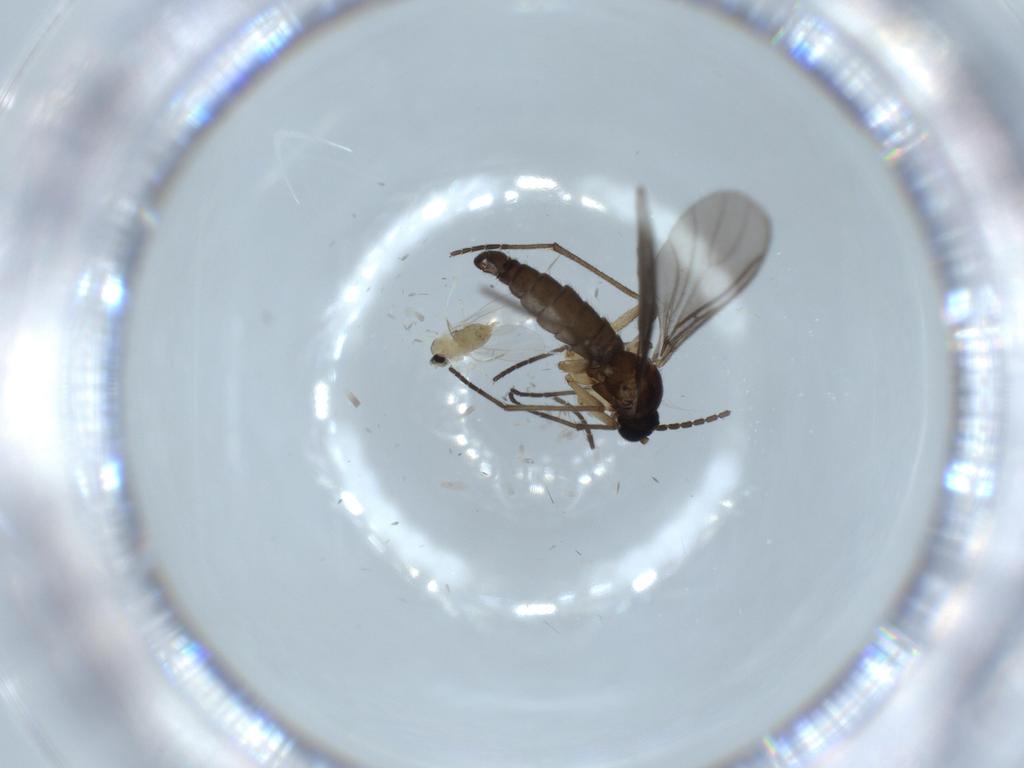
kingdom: Animalia
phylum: Arthropoda
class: Insecta
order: Diptera
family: Cecidomyiidae
